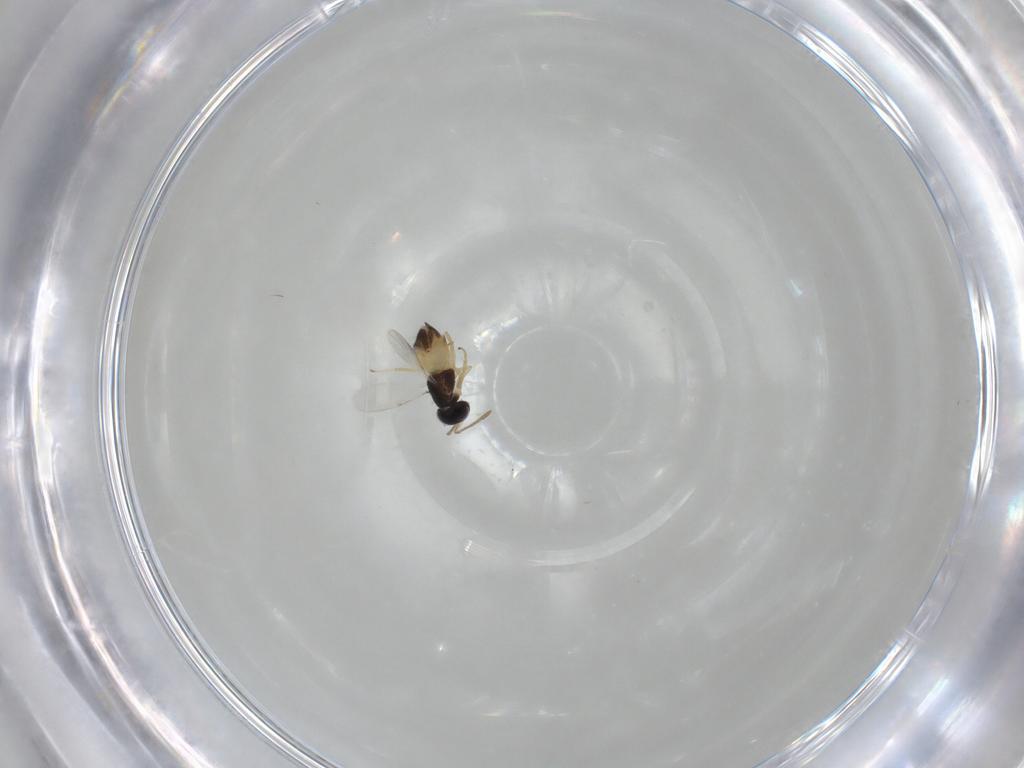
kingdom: Animalia
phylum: Arthropoda
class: Insecta
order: Hymenoptera
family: Encyrtidae
